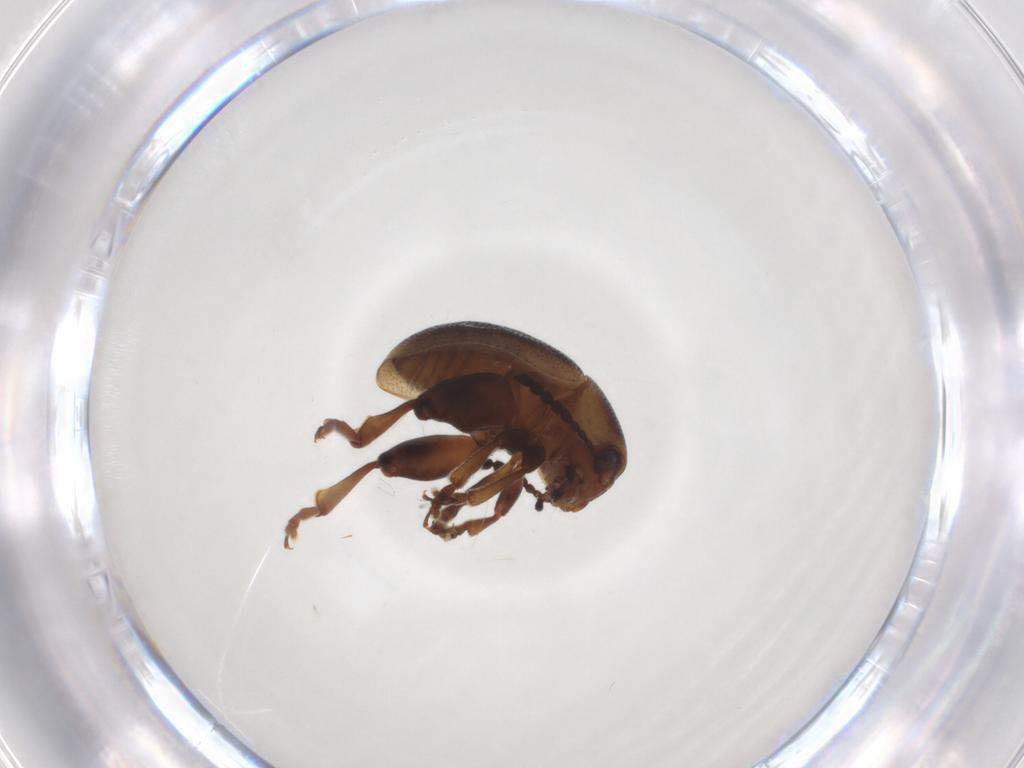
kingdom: Animalia
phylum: Arthropoda
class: Insecta
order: Coleoptera
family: Chrysomelidae
